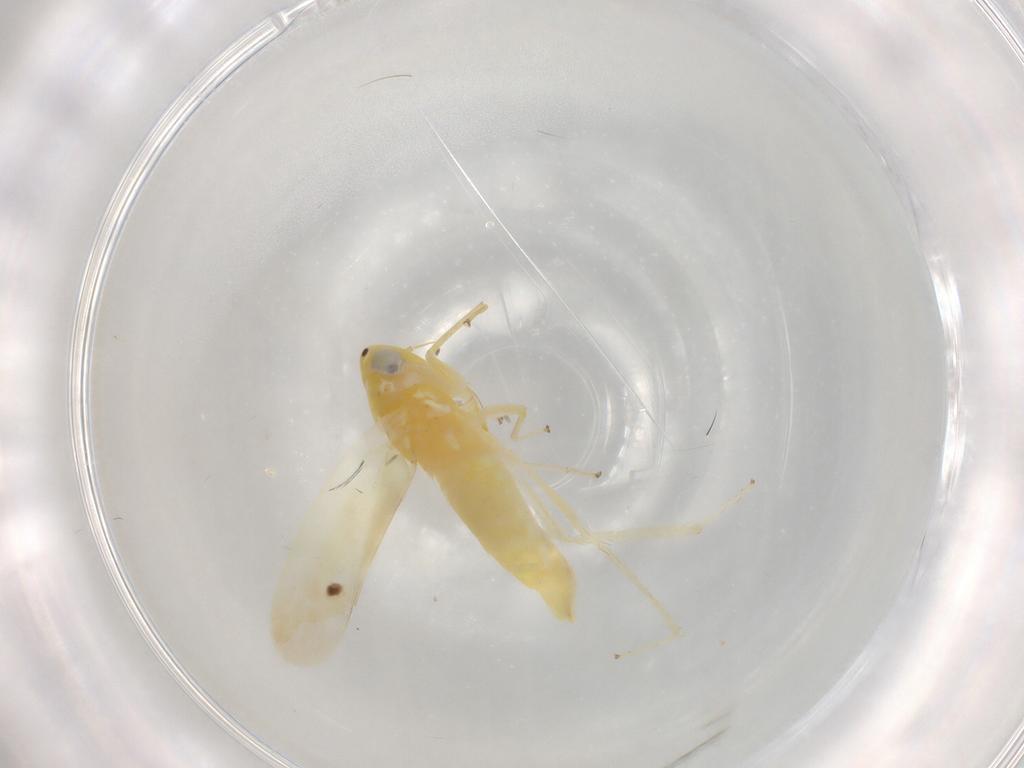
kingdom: Animalia
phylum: Arthropoda
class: Insecta
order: Hemiptera
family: Cicadellidae
